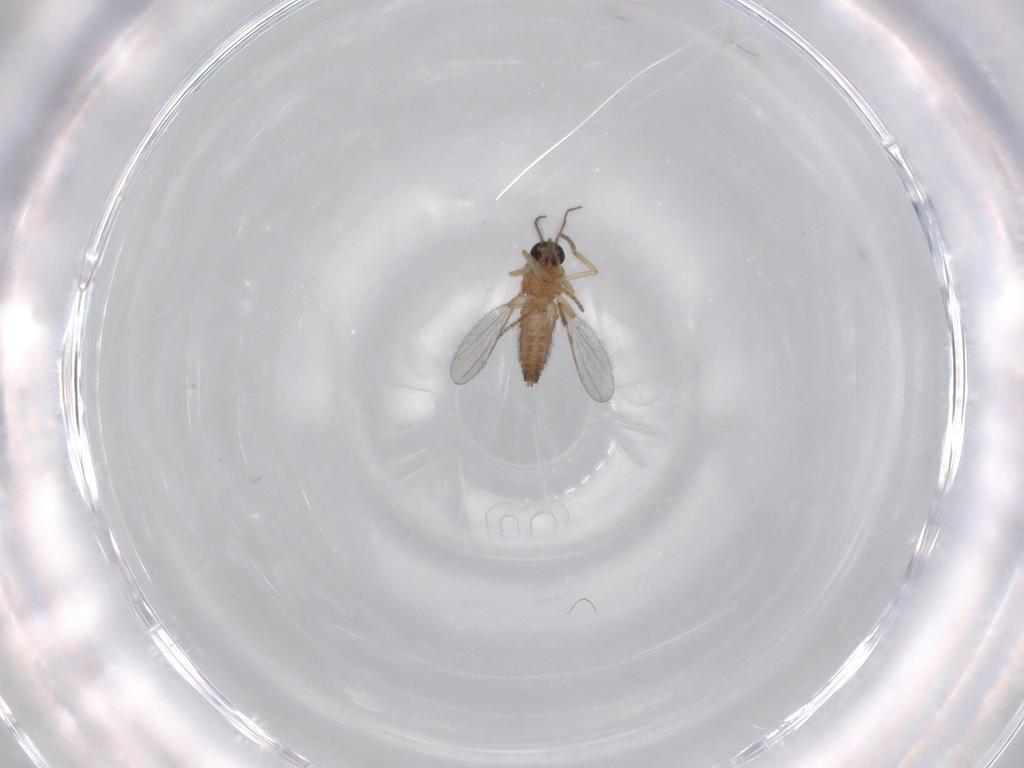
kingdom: Animalia
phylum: Arthropoda
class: Insecta
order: Diptera
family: Ceratopogonidae
